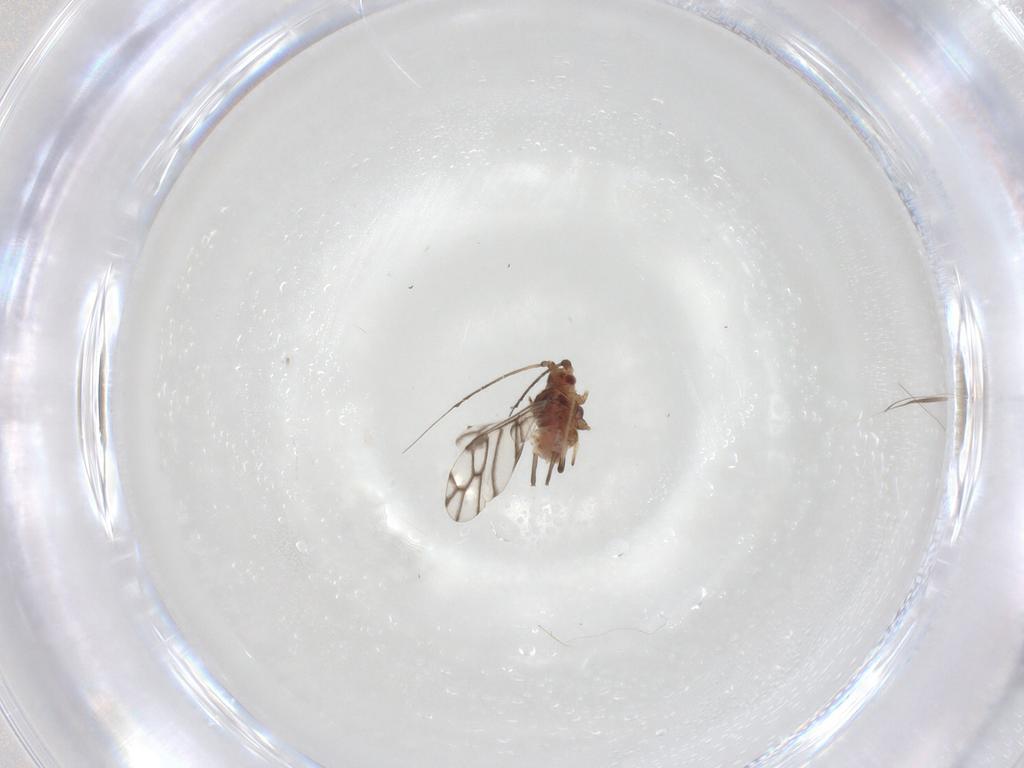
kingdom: Animalia
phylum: Arthropoda
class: Insecta
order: Hemiptera
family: Aphididae
